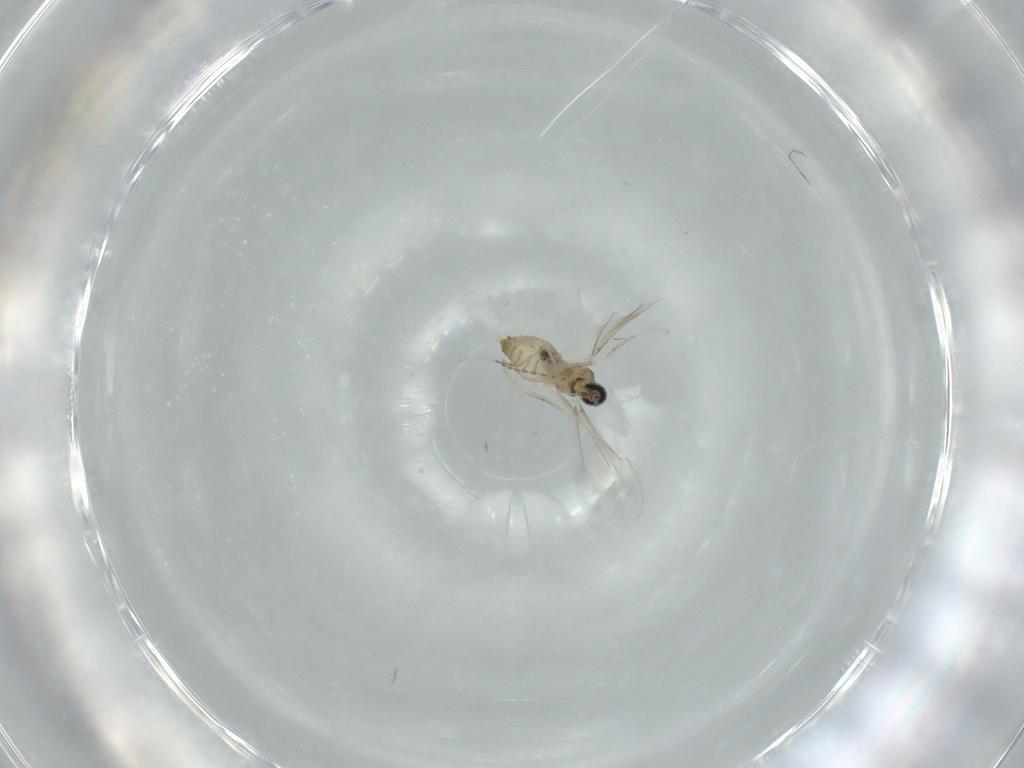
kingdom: Animalia
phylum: Arthropoda
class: Insecta
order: Diptera
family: Cecidomyiidae
